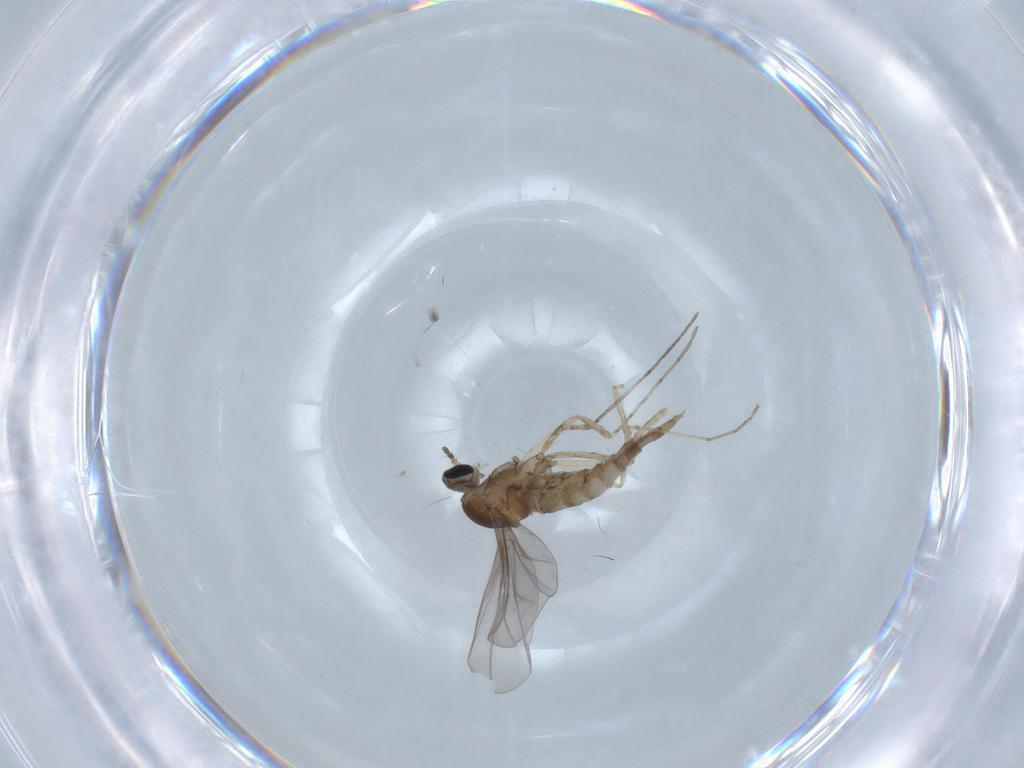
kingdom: Animalia
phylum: Arthropoda
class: Insecta
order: Diptera
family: Cecidomyiidae
